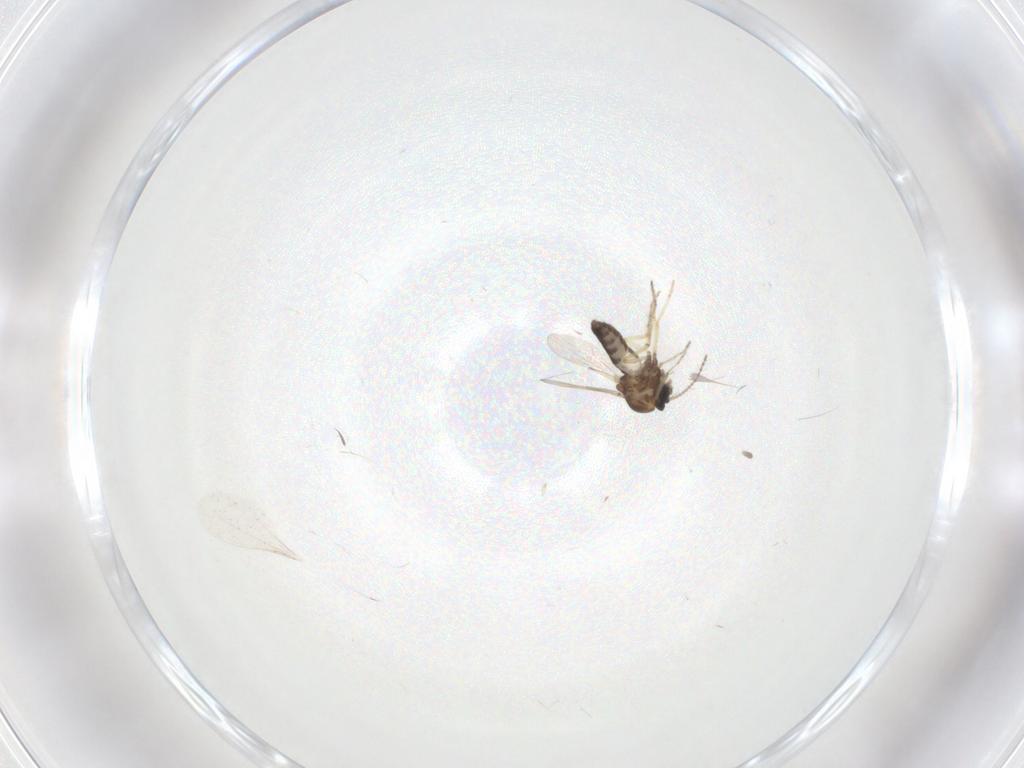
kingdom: Animalia
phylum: Arthropoda
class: Insecta
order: Diptera
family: Ceratopogonidae
